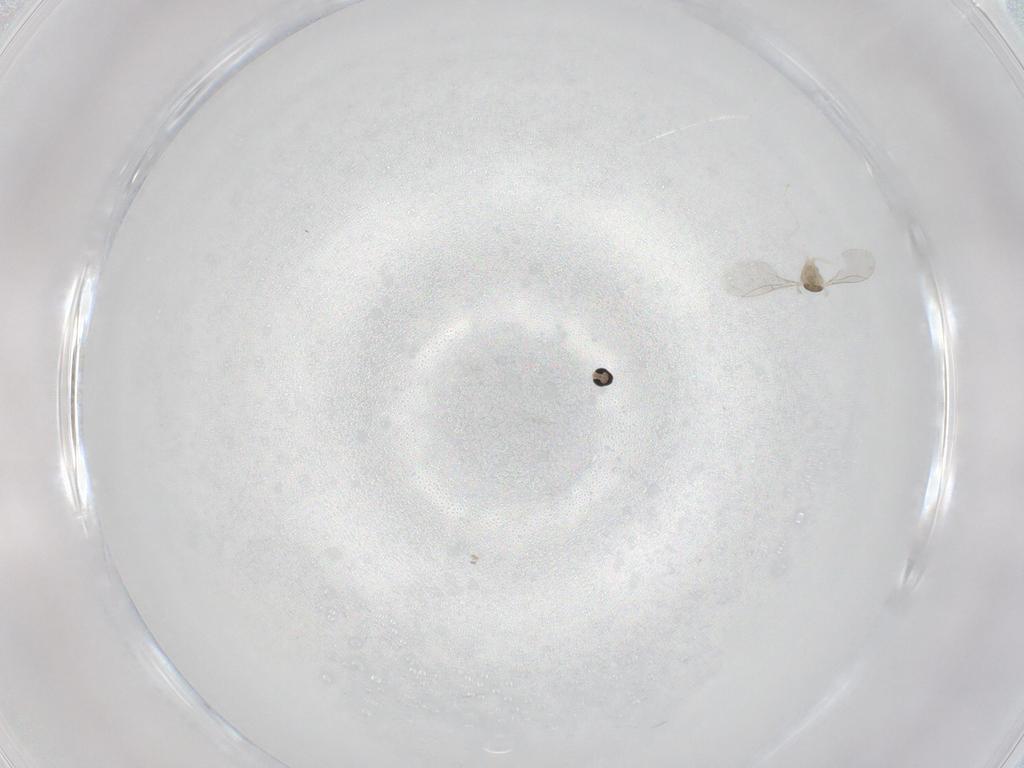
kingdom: Animalia
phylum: Arthropoda
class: Insecta
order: Diptera
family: Cecidomyiidae
